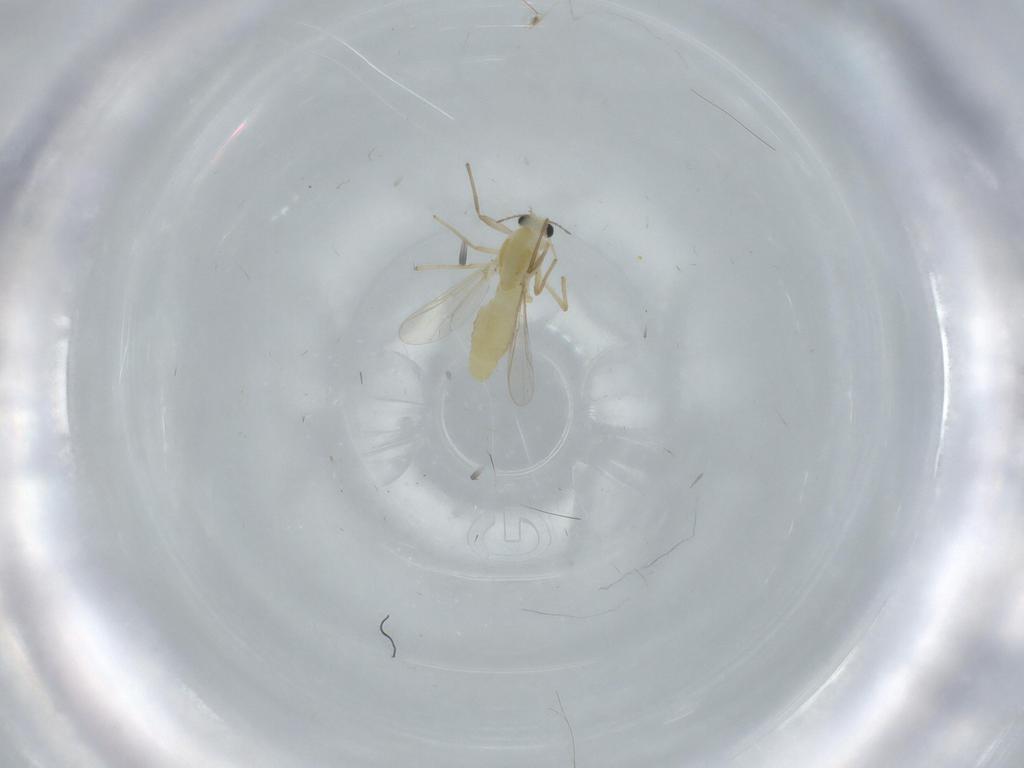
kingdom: Animalia
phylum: Arthropoda
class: Insecta
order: Diptera
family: Chironomidae
